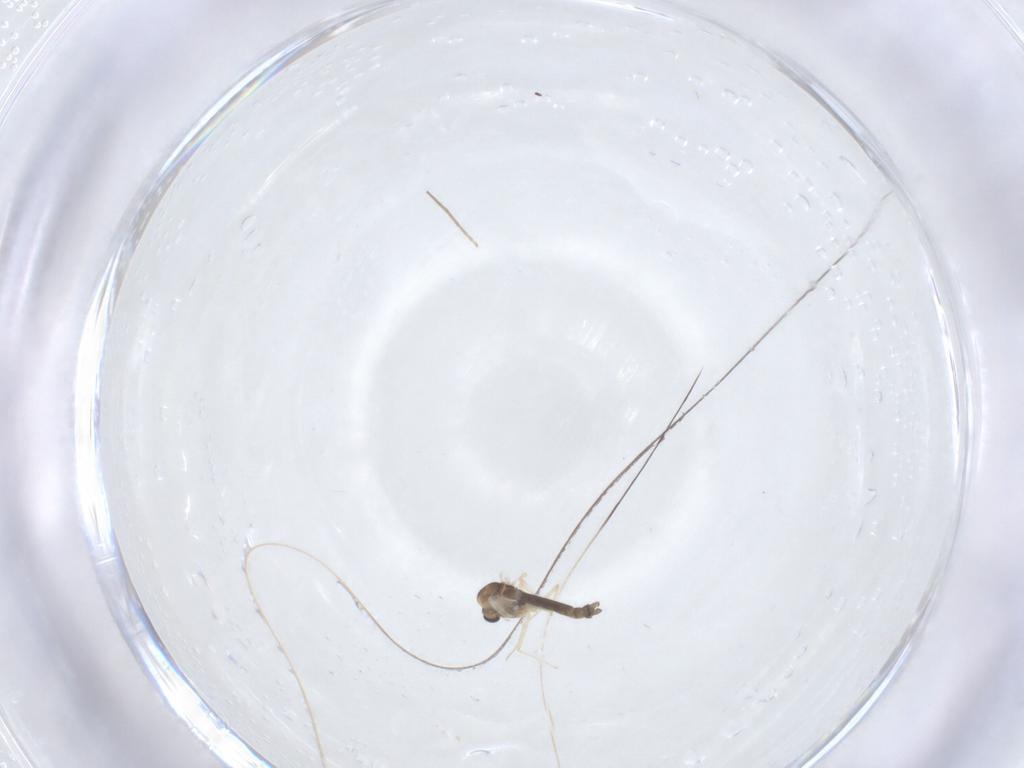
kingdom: Animalia
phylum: Arthropoda
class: Insecta
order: Diptera
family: Chironomidae
